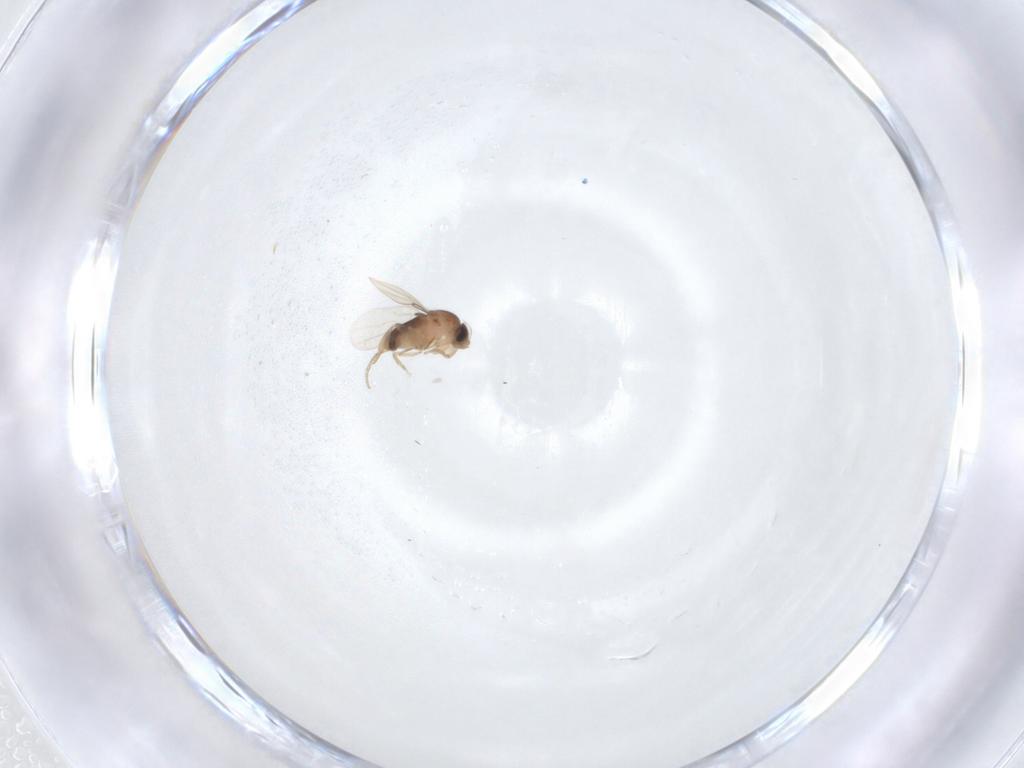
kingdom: Animalia
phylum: Arthropoda
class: Insecta
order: Diptera
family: Phoridae
